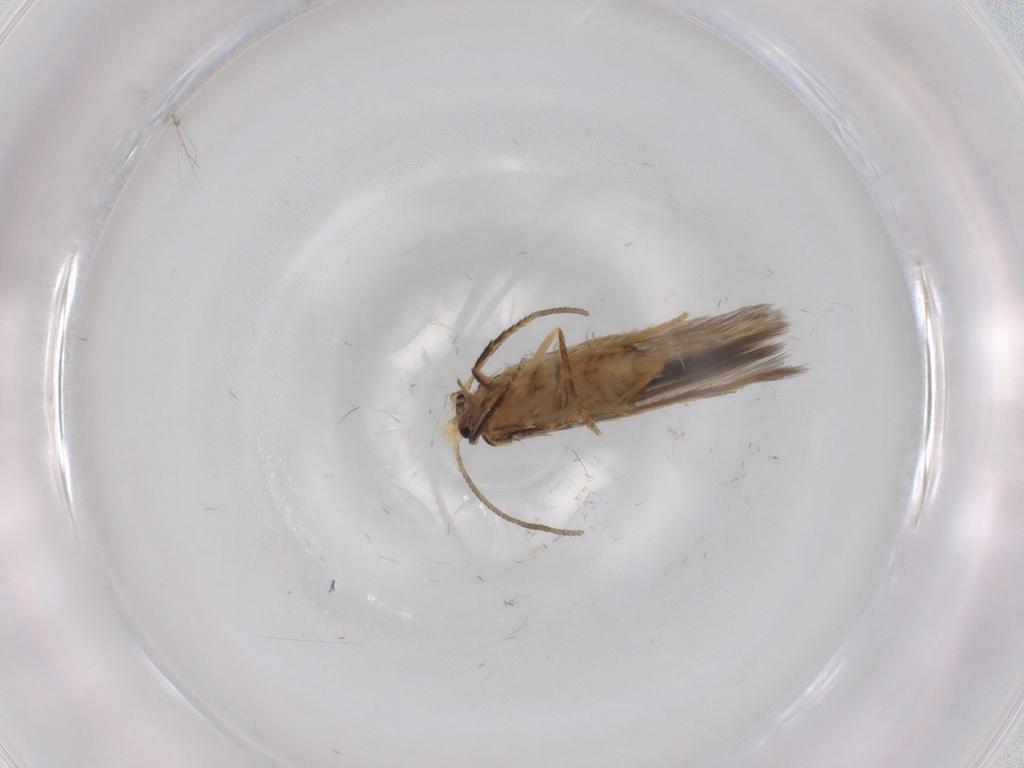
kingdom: Animalia
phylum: Arthropoda
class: Insecta
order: Lepidoptera
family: Nepticulidae
